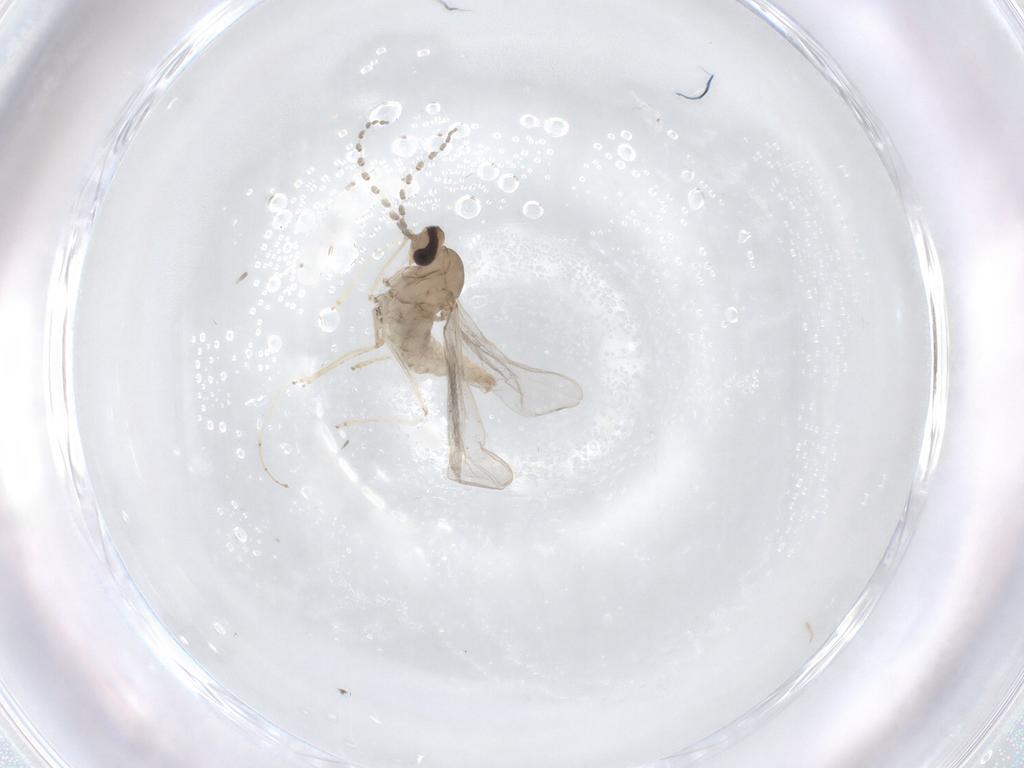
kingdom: Animalia
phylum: Arthropoda
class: Insecta
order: Diptera
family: Cecidomyiidae
